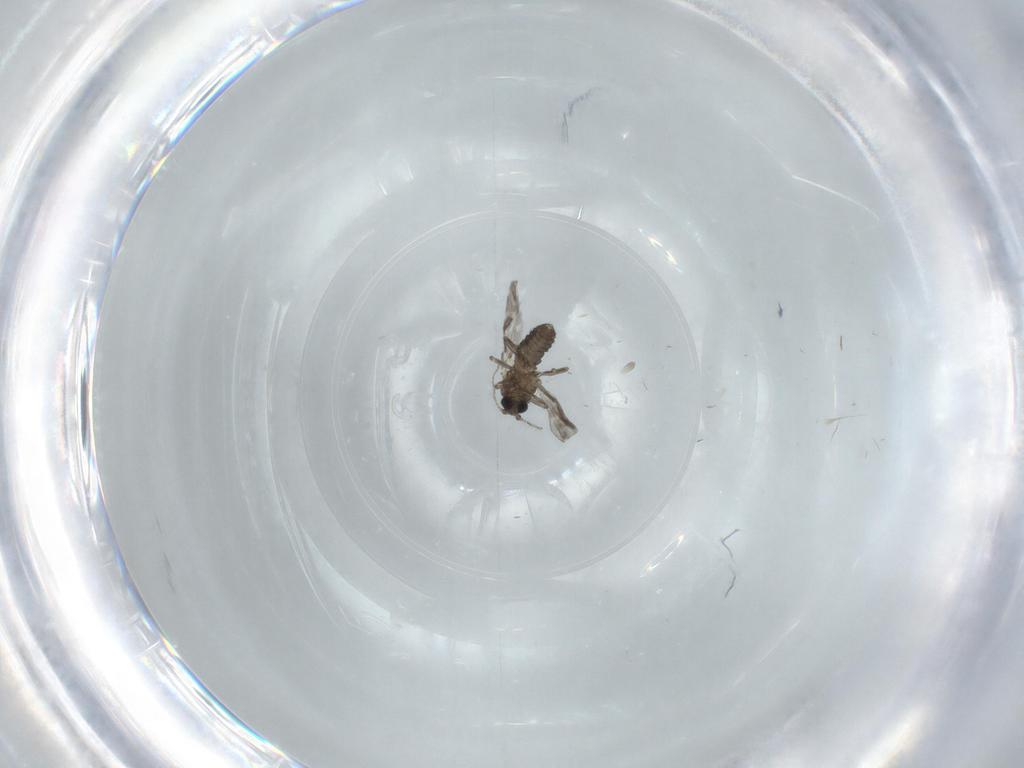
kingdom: Animalia
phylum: Arthropoda
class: Insecta
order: Diptera
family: Ceratopogonidae
